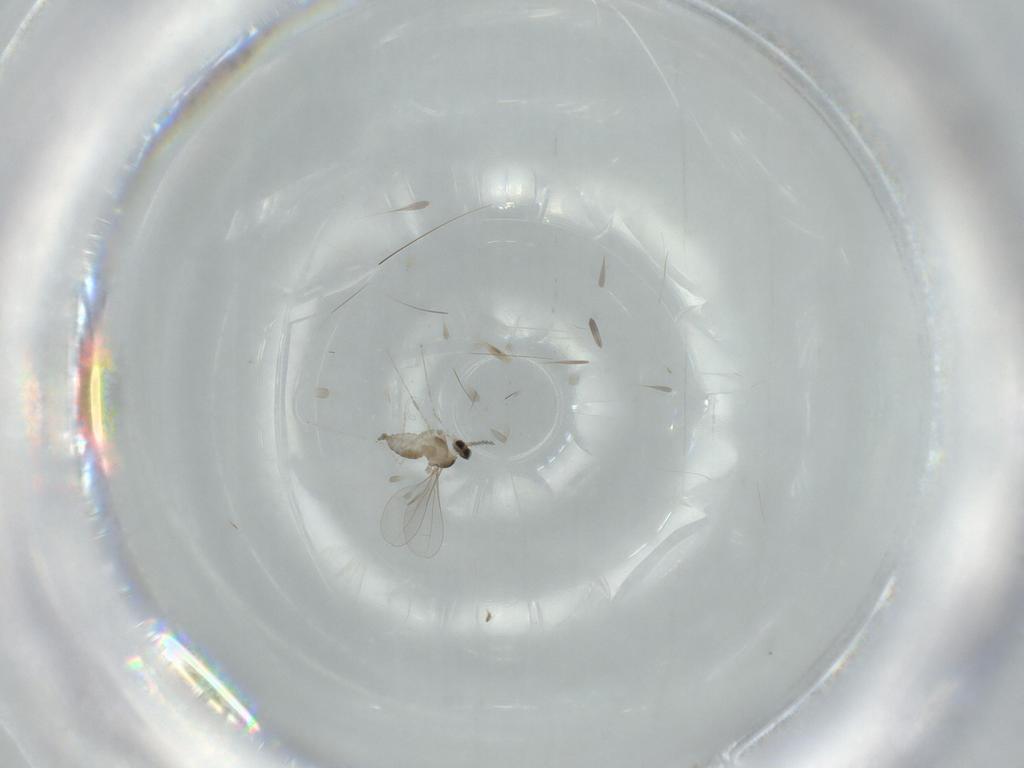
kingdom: Animalia
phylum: Arthropoda
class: Insecta
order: Diptera
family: Cecidomyiidae
